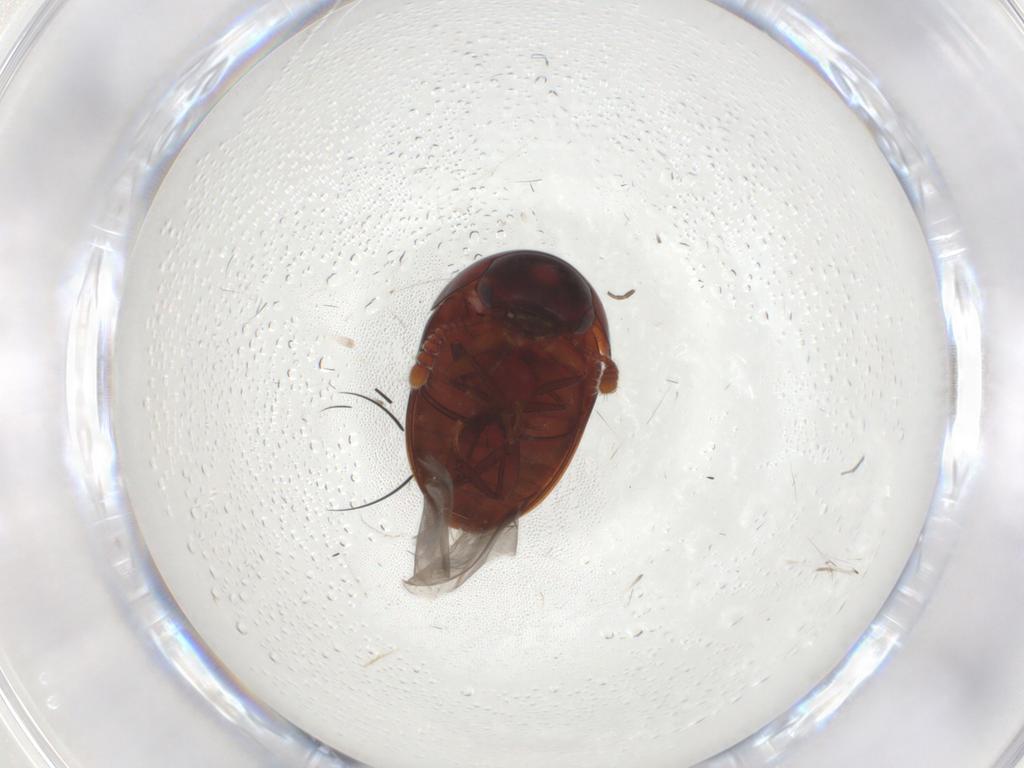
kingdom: Animalia
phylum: Arthropoda
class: Insecta
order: Coleoptera
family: Leiodidae
